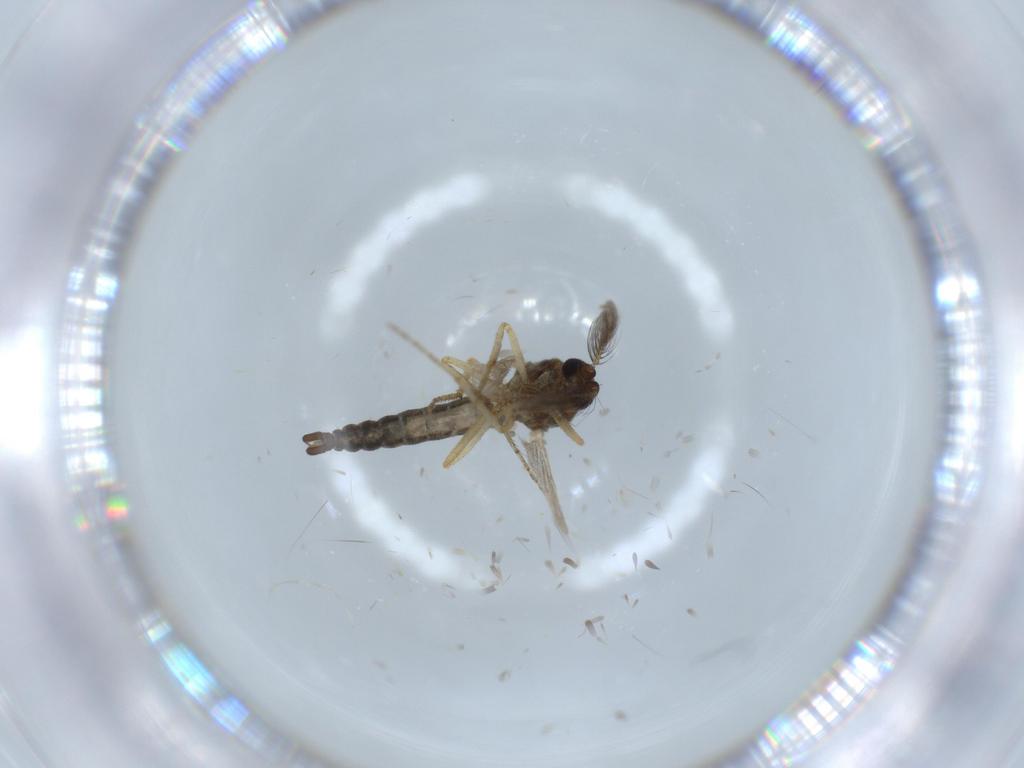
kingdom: Animalia
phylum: Arthropoda
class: Insecta
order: Diptera
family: Ceratopogonidae
